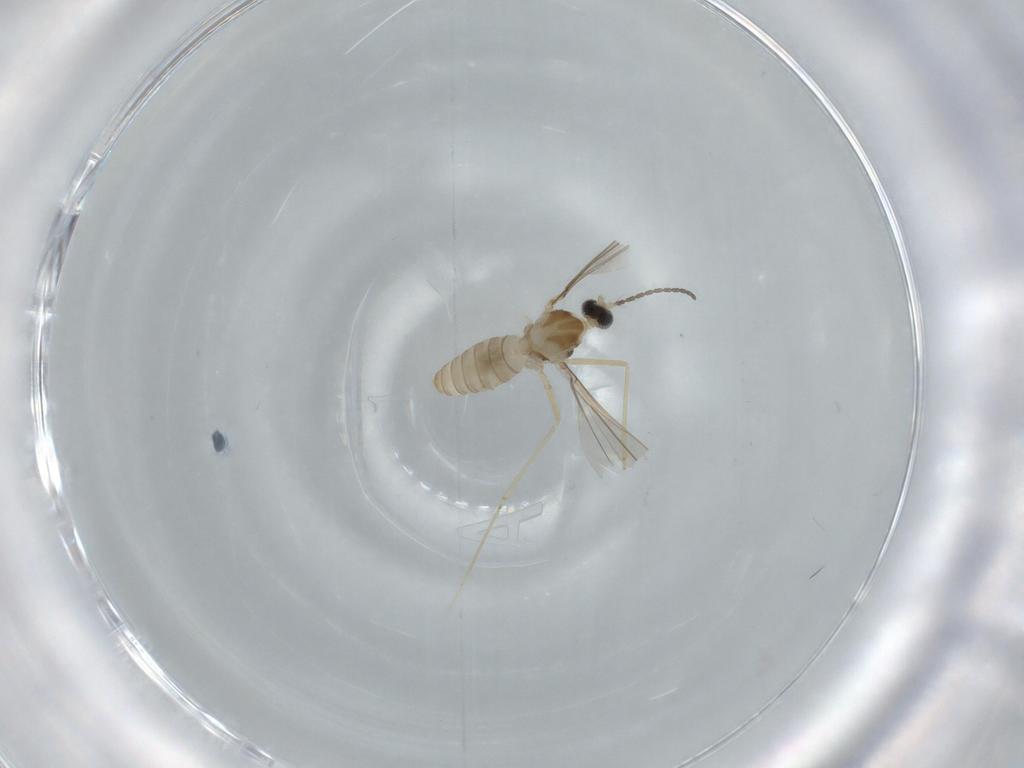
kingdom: Animalia
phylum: Arthropoda
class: Insecta
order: Diptera
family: Cecidomyiidae
